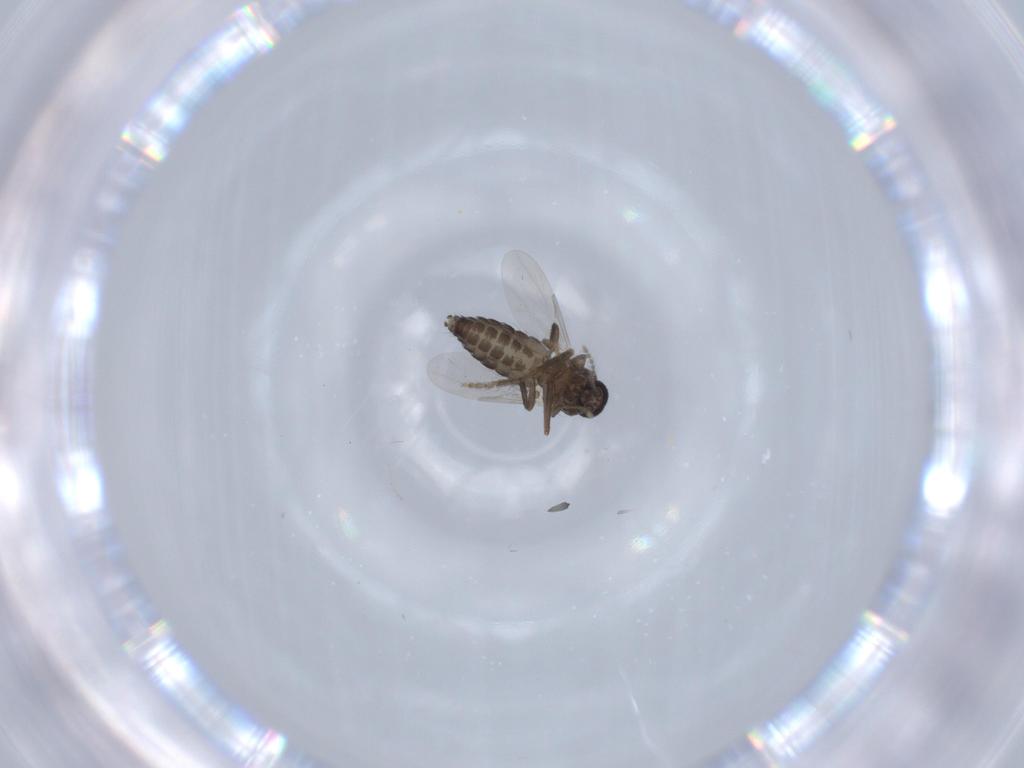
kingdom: Animalia
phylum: Arthropoda
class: Insecta
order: Diptera
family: Ceratopogonidae
